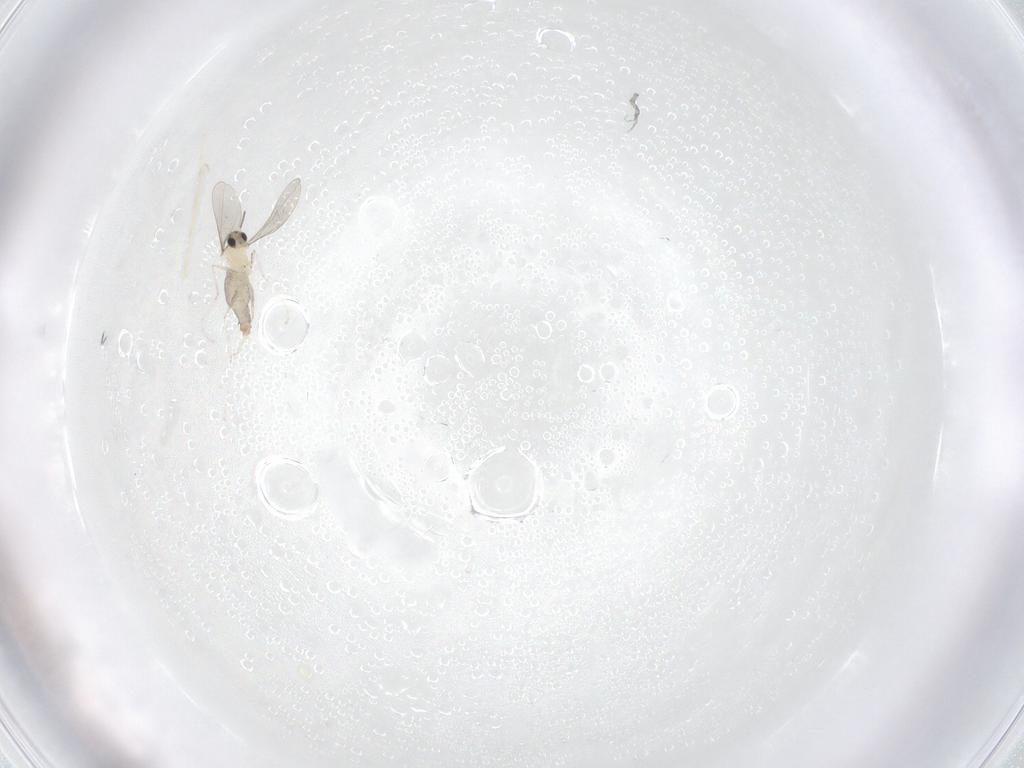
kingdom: Animalia
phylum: Arthropoda
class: Insecta
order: Diptera
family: Cecidomyiidae
